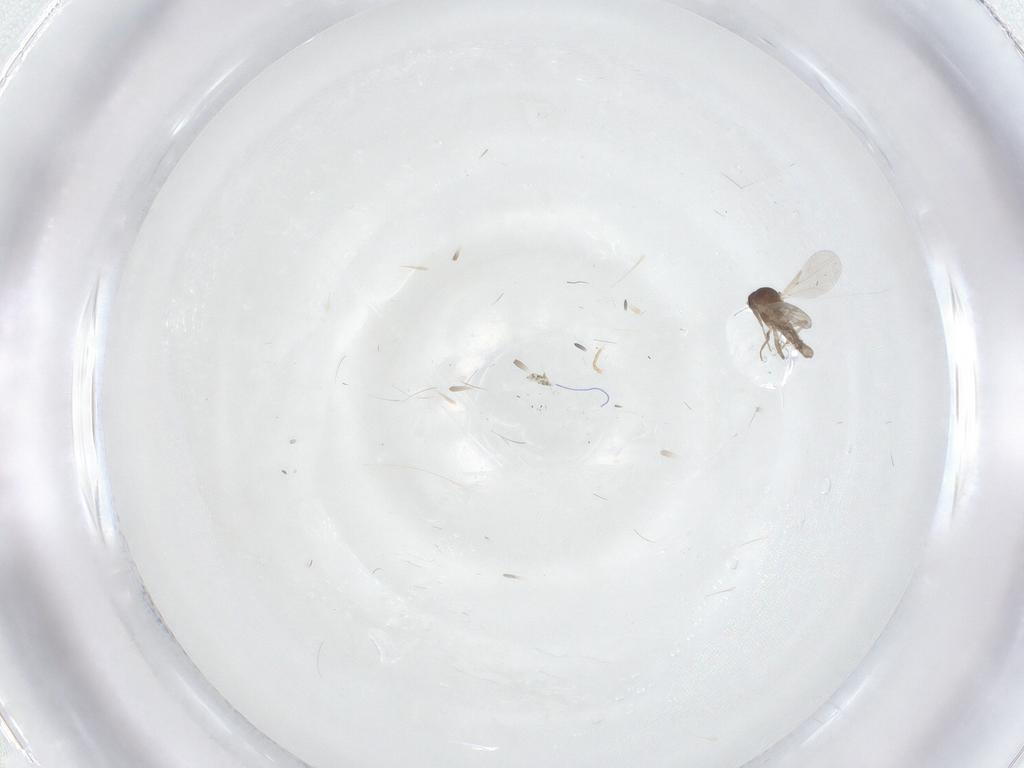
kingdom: Animalia
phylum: Arthropoda
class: Insecta
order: Diptera
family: Ceratopogonidae
